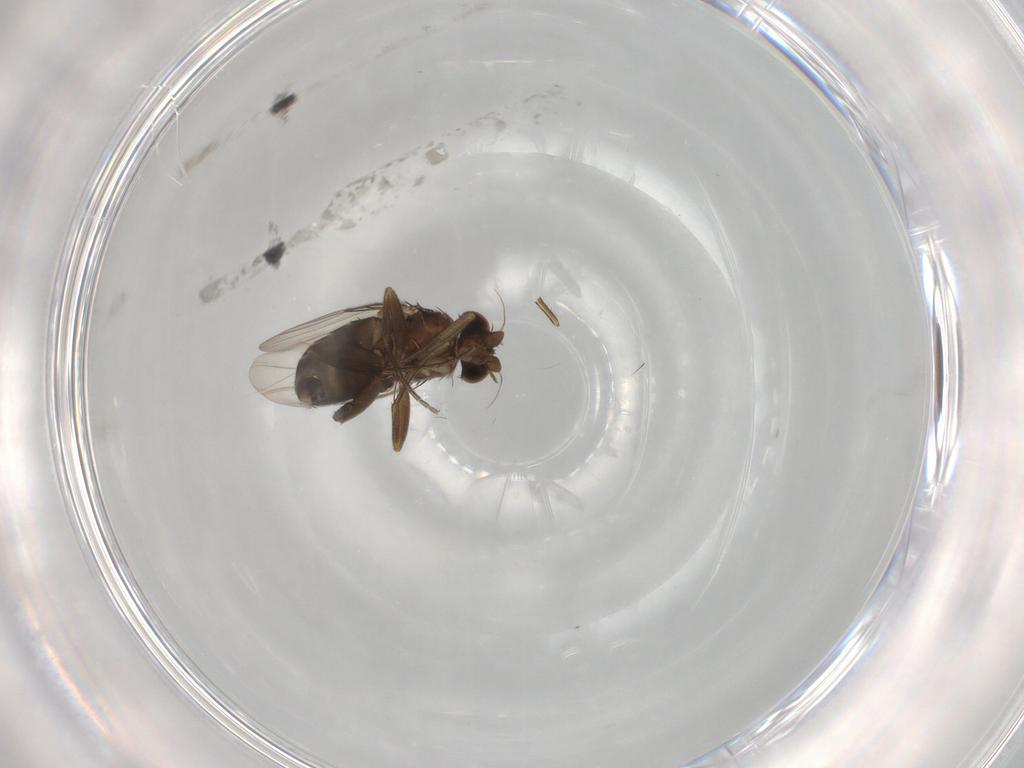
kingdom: Animalia
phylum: Arthropoda
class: Insecta
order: Diptera
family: Phoridae
